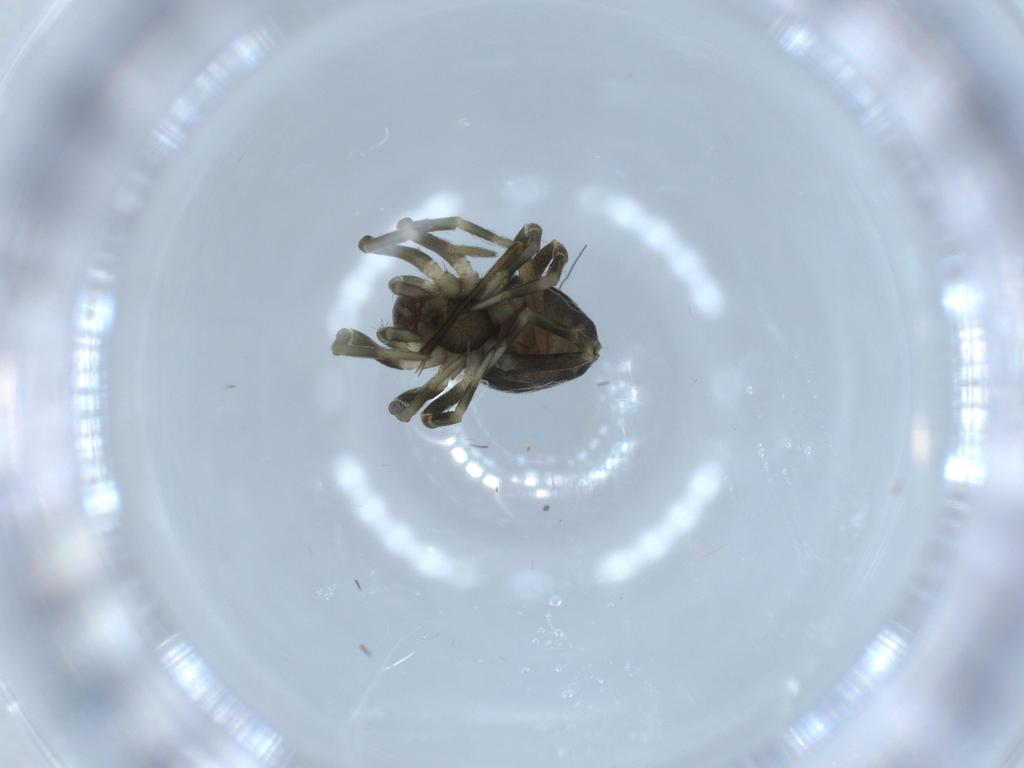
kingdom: Animalia
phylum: Arthropoda
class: Arachnida
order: Araneae
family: Dictynidae
